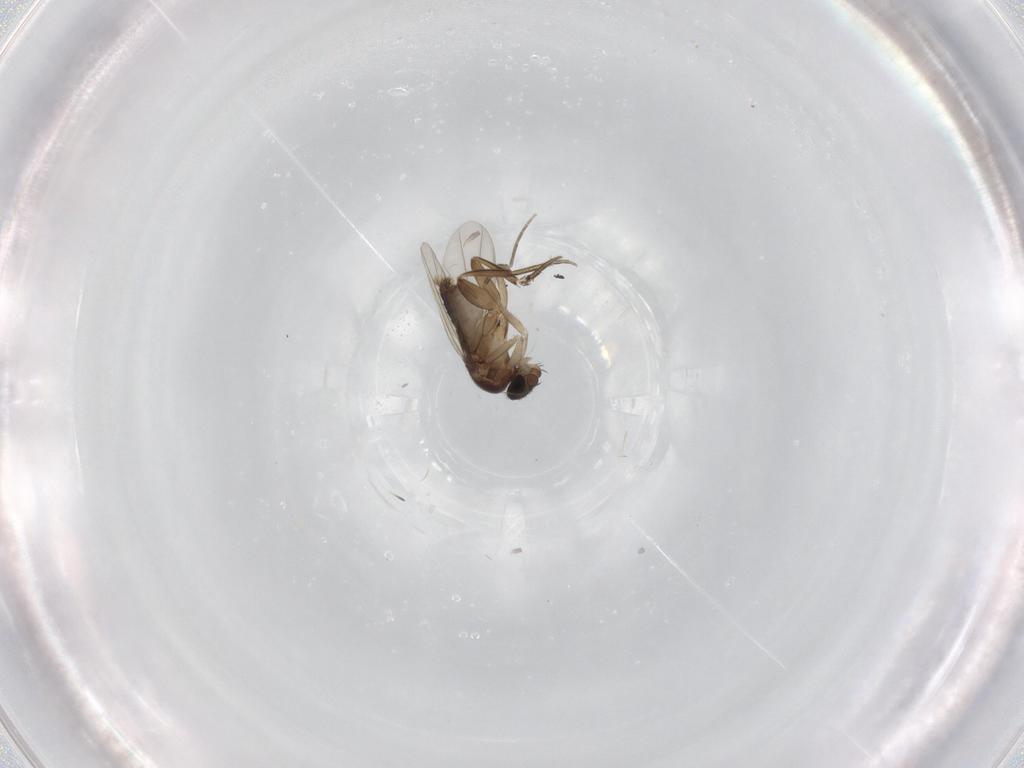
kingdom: Animalia
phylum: Arthropoda
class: Insecta
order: Diptera
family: Phoridae
